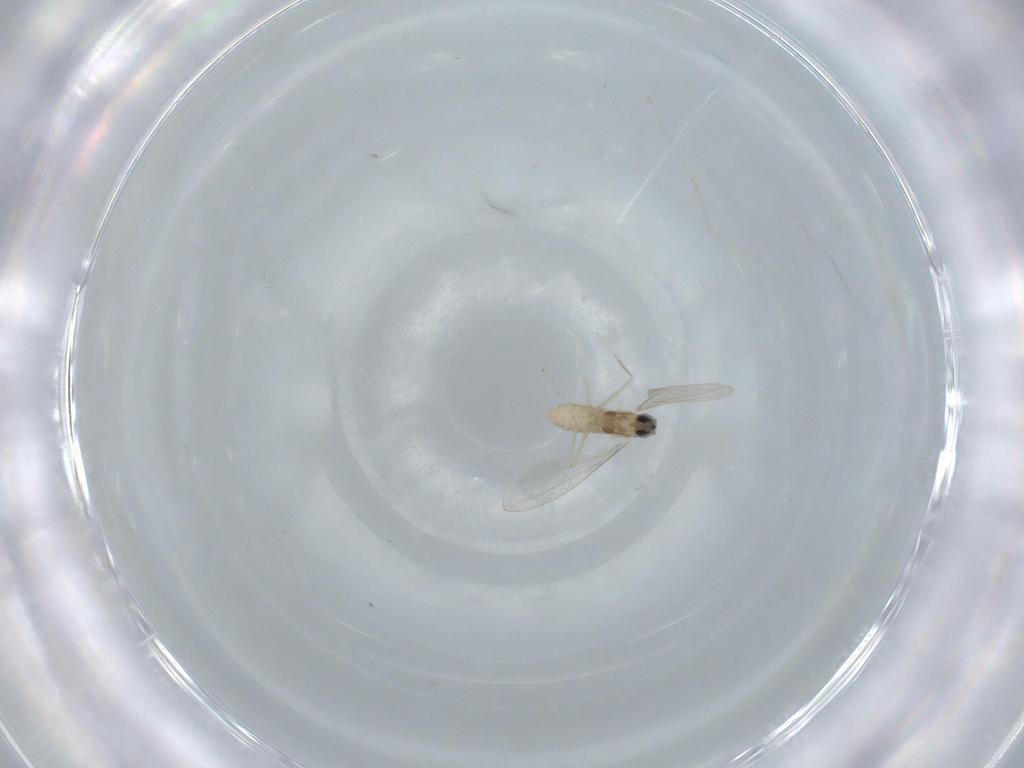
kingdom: Animalia
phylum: Arthropoda
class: Insecta
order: Diptera
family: Cecidomyiidae
